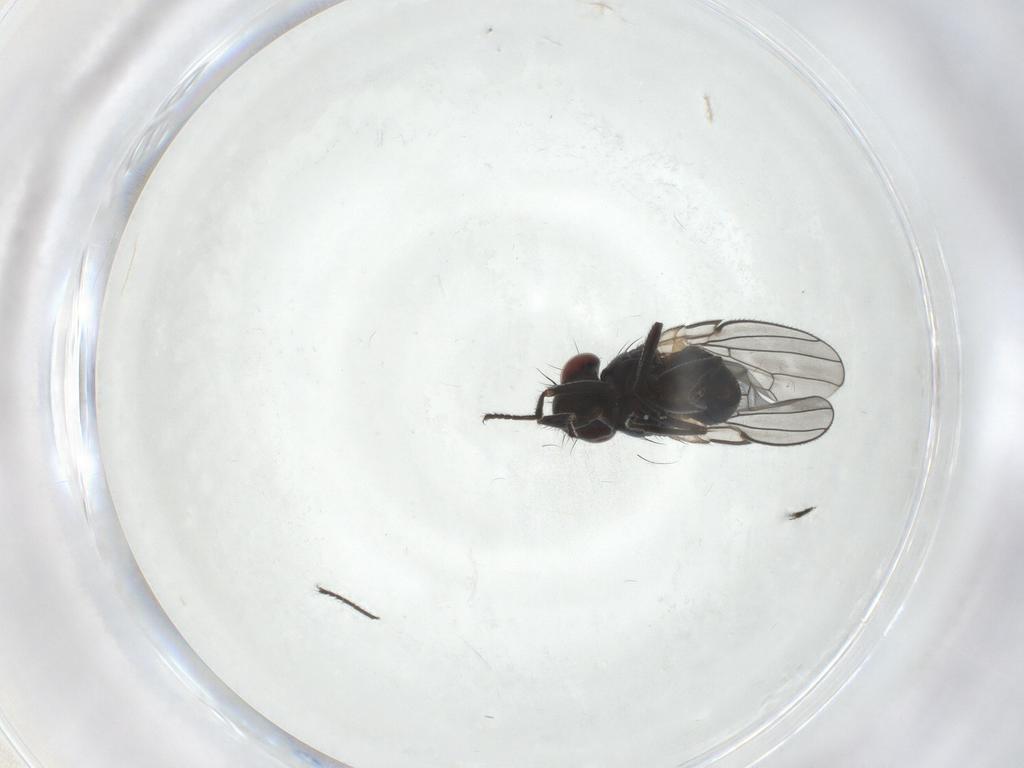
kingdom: Animalia
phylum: Arthropoda
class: Insecta
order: Diptera
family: Ephydridae
